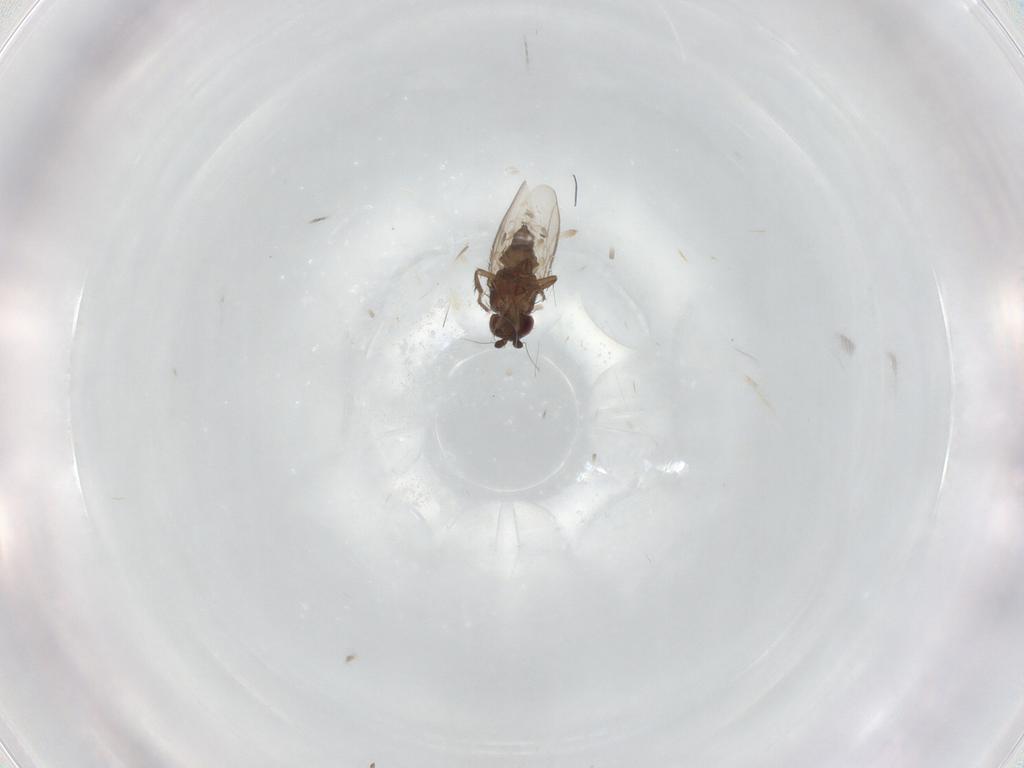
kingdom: Animalia
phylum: Arthropoda
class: Insecta
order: Diptera
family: Sphaeroceridae
